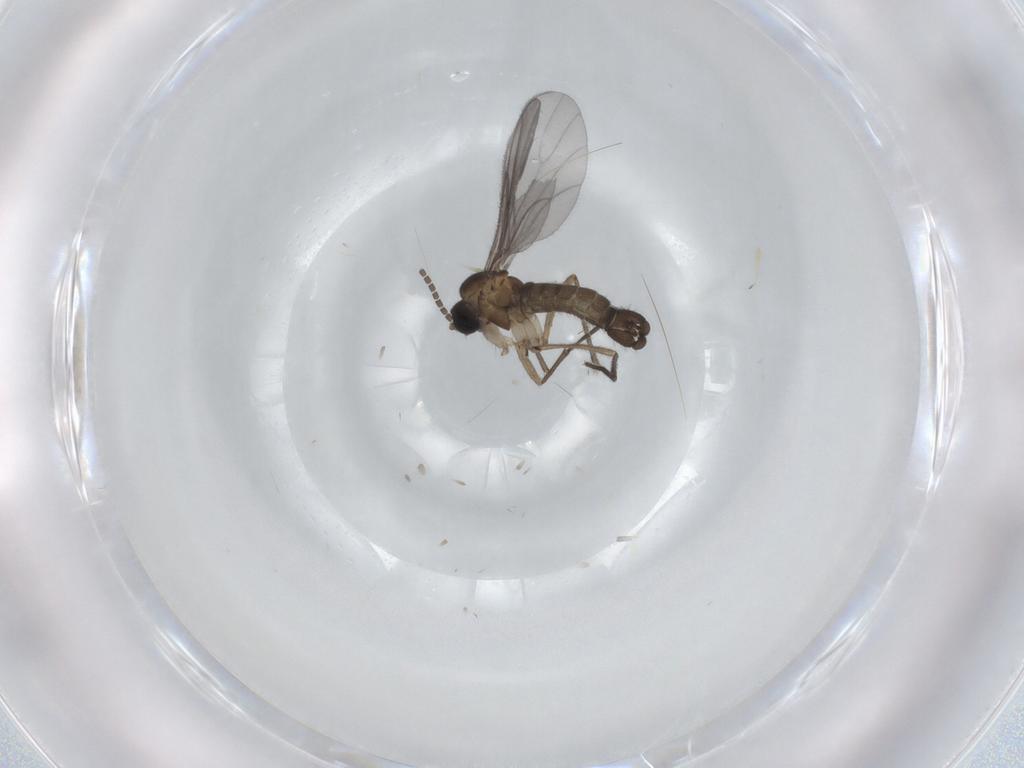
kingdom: Animalia
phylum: Arthropoda
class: Insecta
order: Diptera
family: Sciaridae
